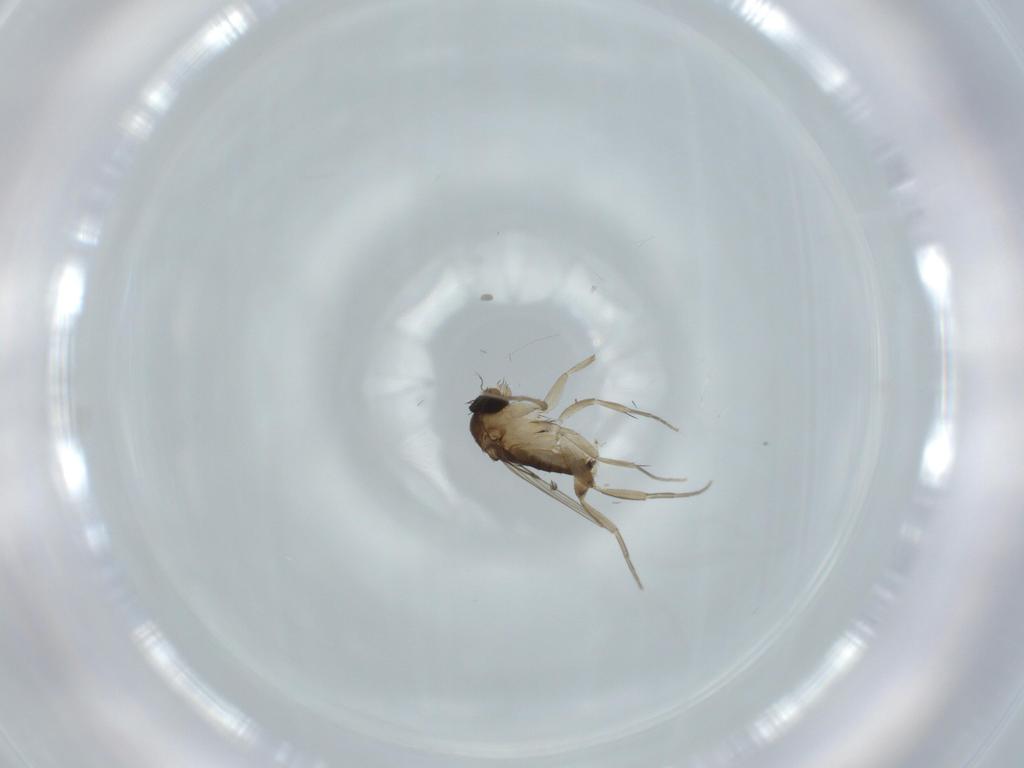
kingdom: Animalia
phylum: Arthropoda
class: Insecta
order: Diptera
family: Phoridae
